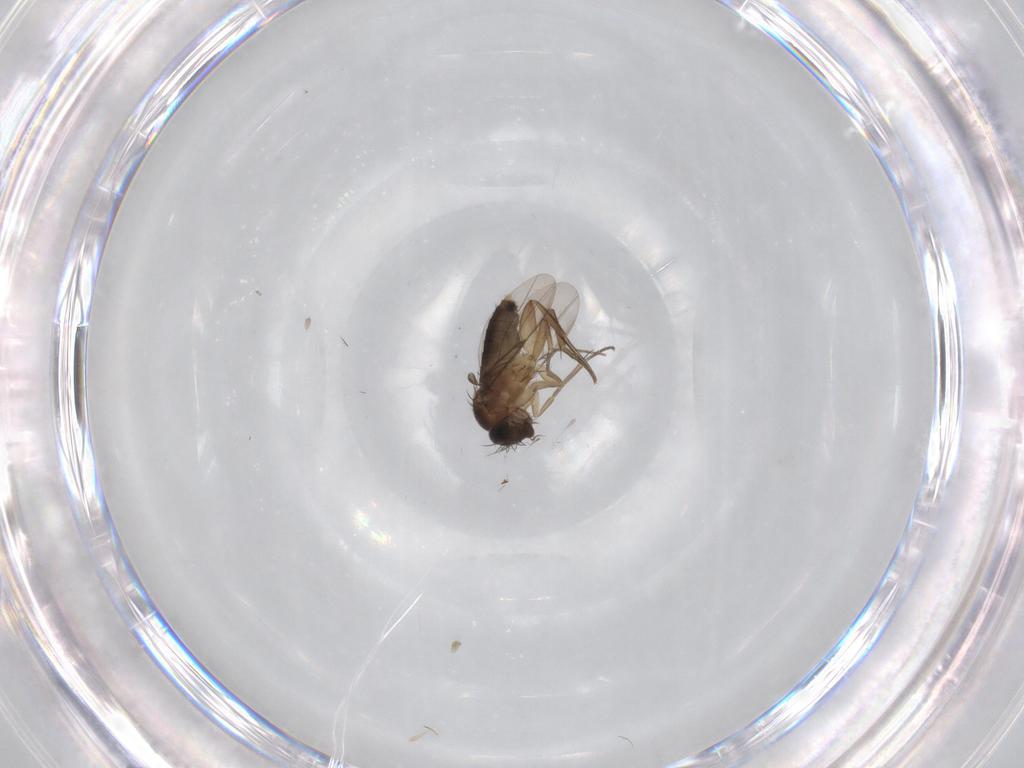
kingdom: Animalia
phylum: Arthropoda
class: Insecta
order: Diptera
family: Phoridae
